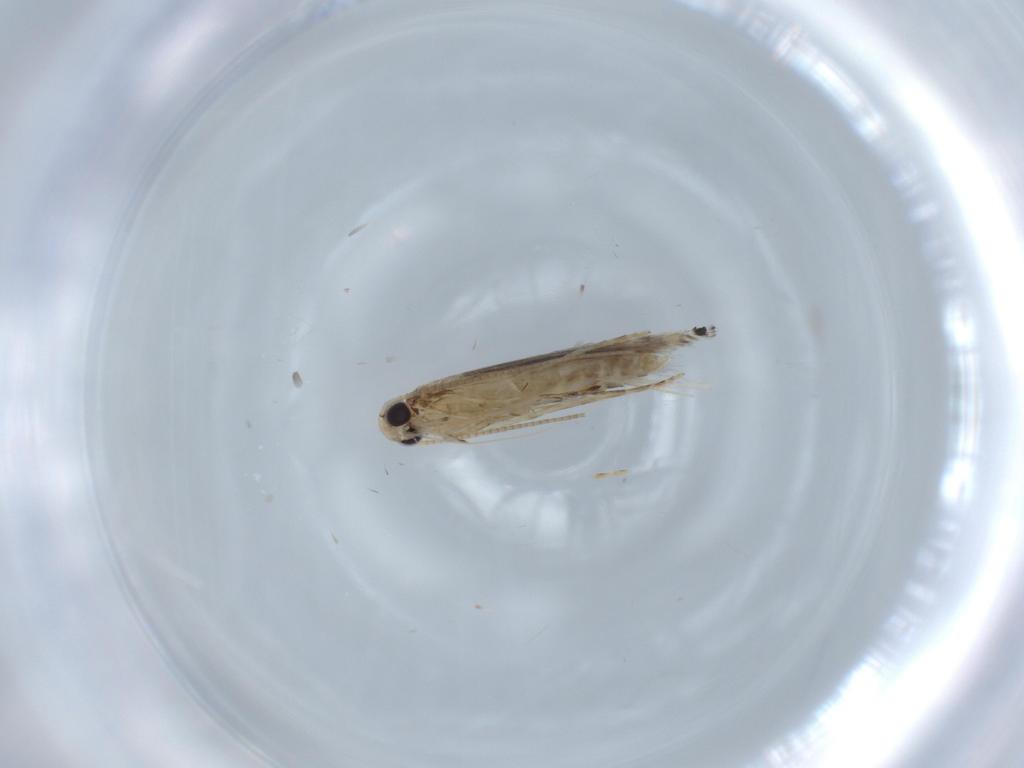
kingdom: Animalia
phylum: Arthropoda
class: Insecta
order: Lepidoptera
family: Gracillariidae
